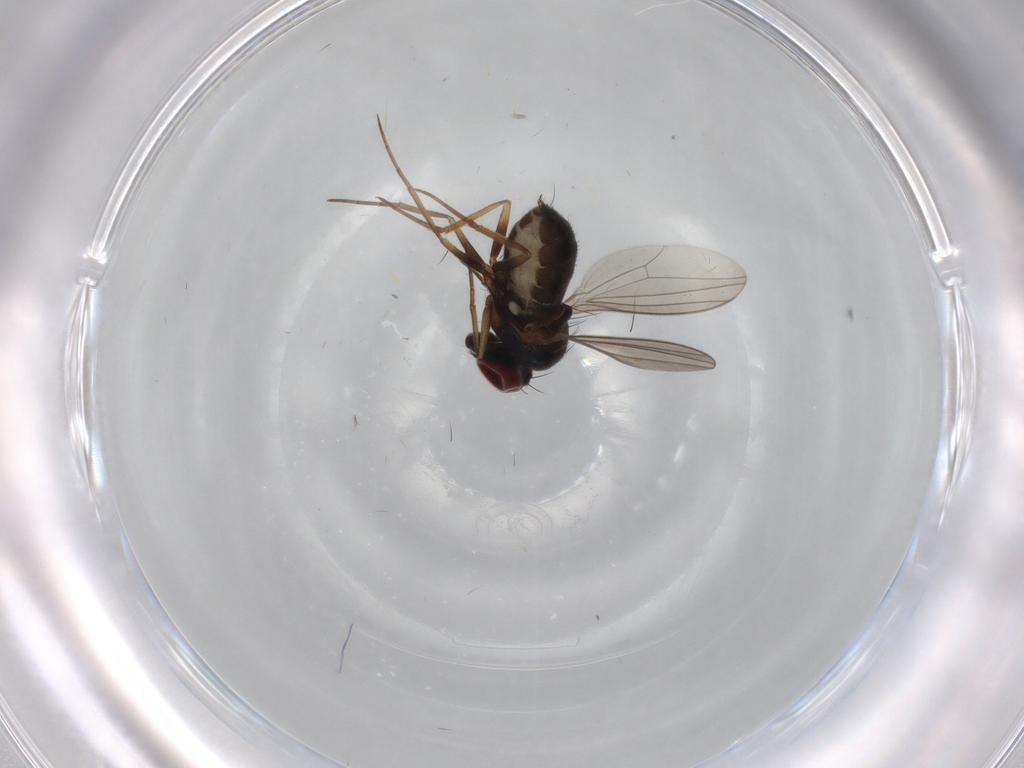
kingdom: Animalia
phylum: Arthropoda
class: Insecta
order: Diptera
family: Dolichopodidae
